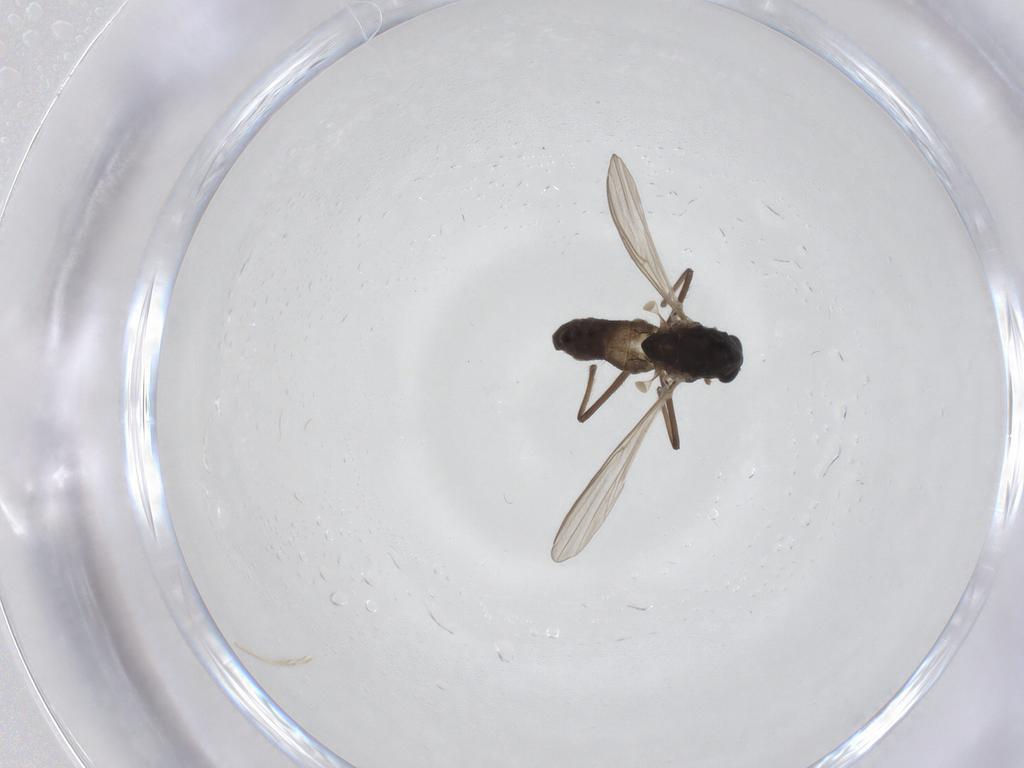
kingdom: Animalia
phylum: Arthropoda
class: Insecta
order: Diptera
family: Chironomidae
